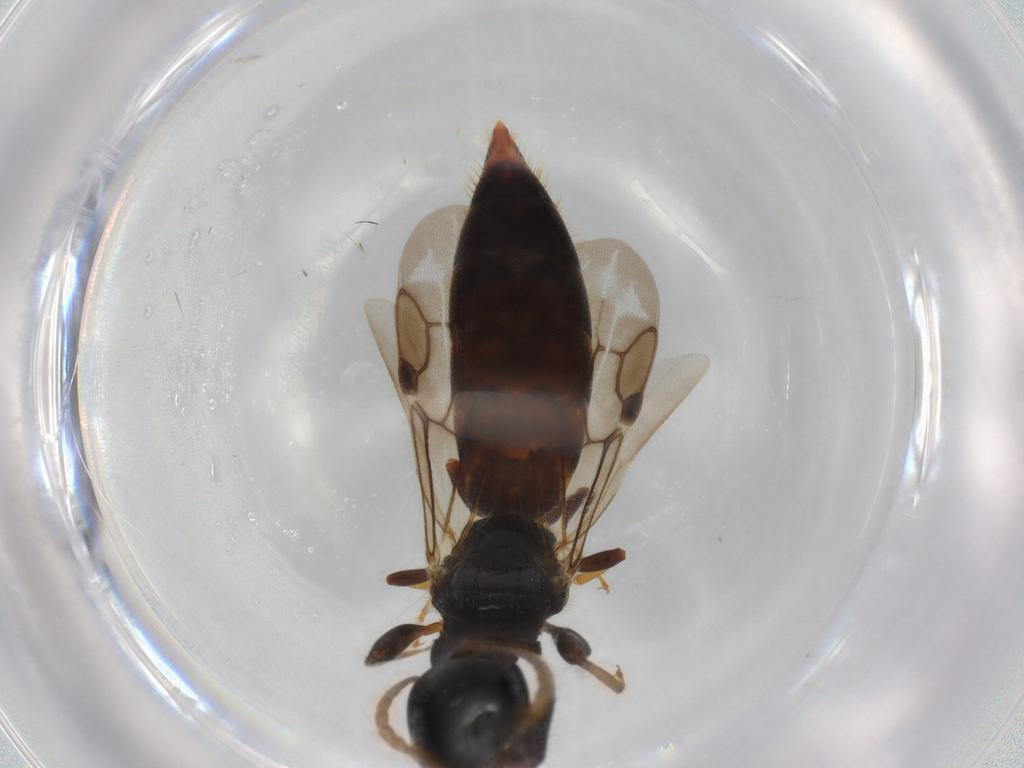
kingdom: Animalia
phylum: Arthropoda
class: Insecta
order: Hymenoptera
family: Scolebythidae
